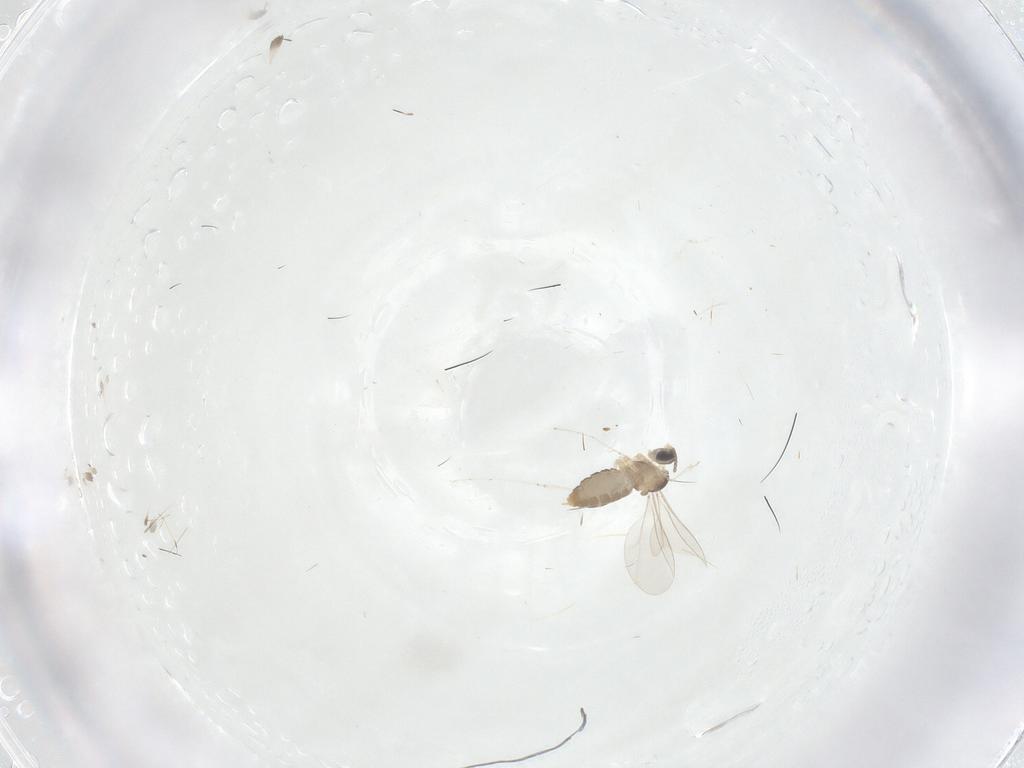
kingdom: Animalia
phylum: Arthropoda
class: Insecta
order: Diptera
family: Cecidomyiidae
